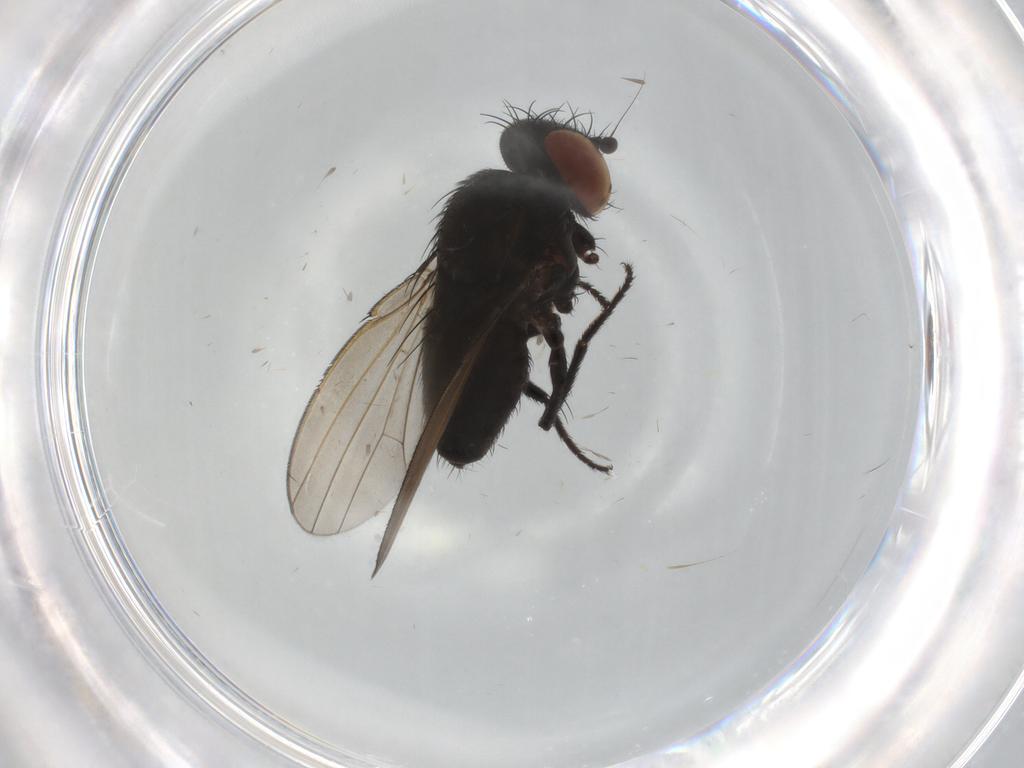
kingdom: Animalia
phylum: Arthropoda
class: Insecta
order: Diptera
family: Milichiidae
